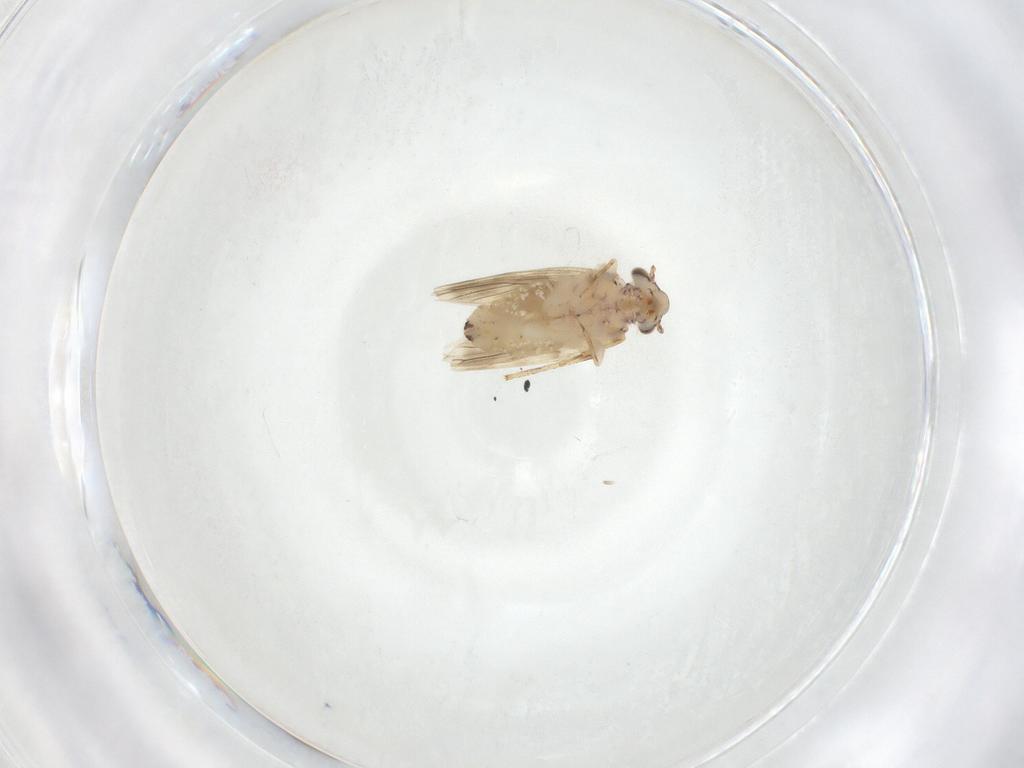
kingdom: Animalia
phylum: Arthropoda
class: Insecta
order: Psocodea
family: Lepidopsocidae
